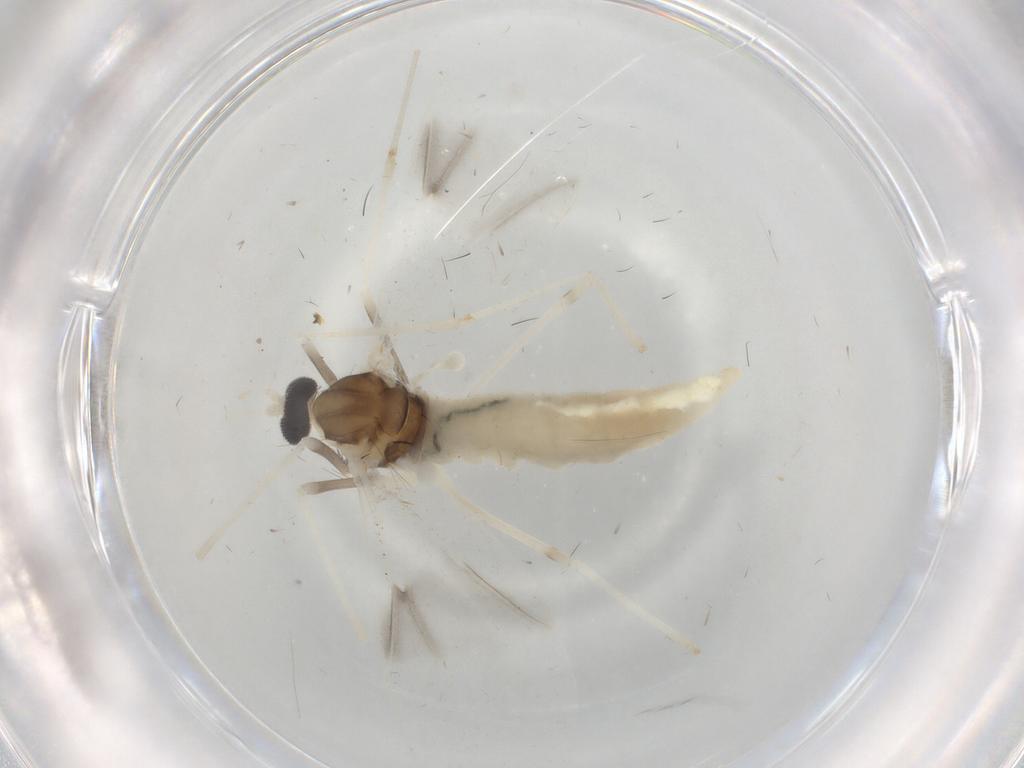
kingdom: Animalia
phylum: Arthropoda
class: Insecta
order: Diptera
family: Cecidomyiidae
